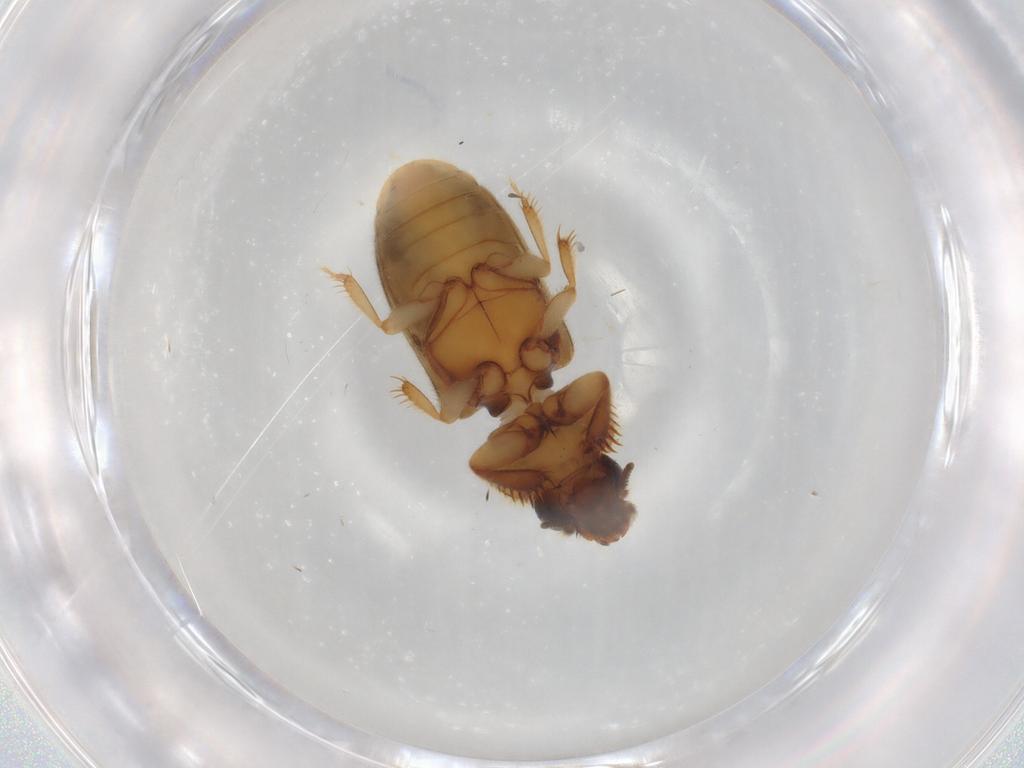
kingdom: Animalia
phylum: Arthropoda
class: Insecta
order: Coleoptera
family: Heteroceridae
